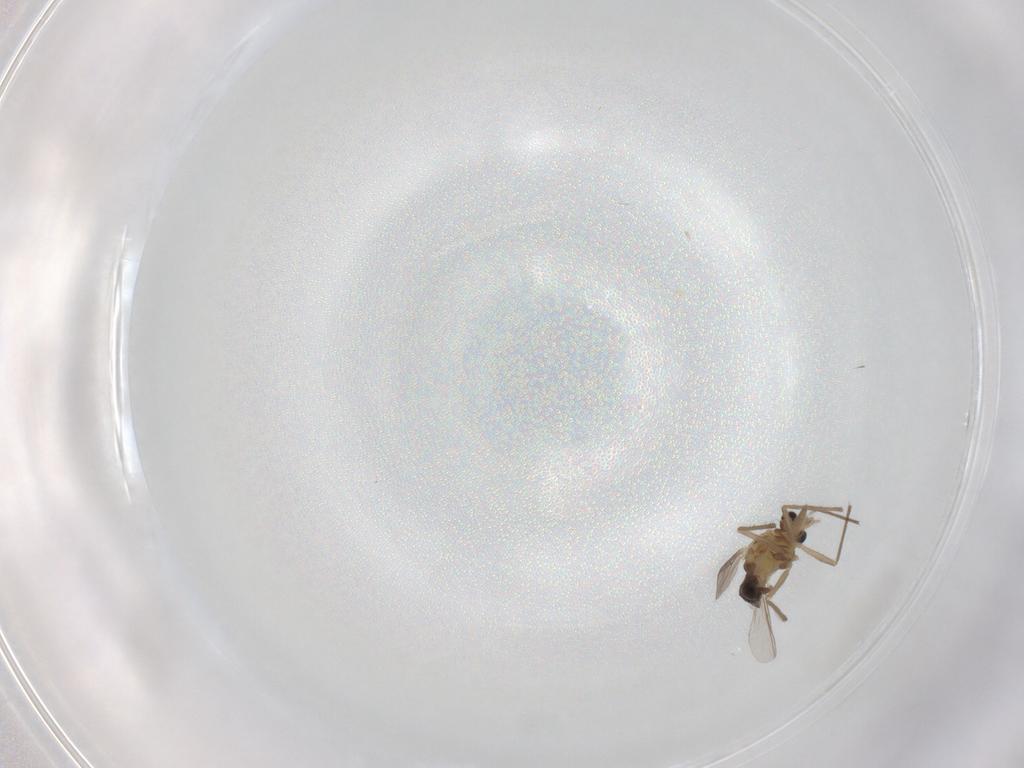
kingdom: Animalia
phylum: Arthropoda
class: Insecta
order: Diptera
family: Chironomidae
